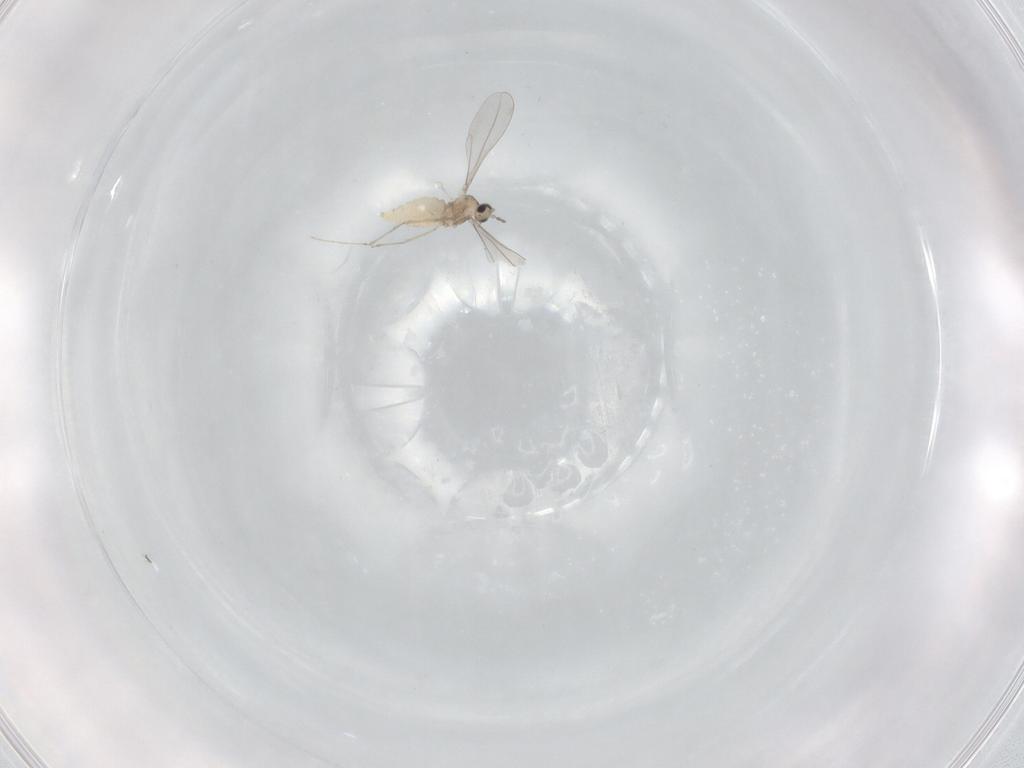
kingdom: Animalia
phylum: Arthropoda
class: Insecta
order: Diptera
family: Cecidomyiidae
